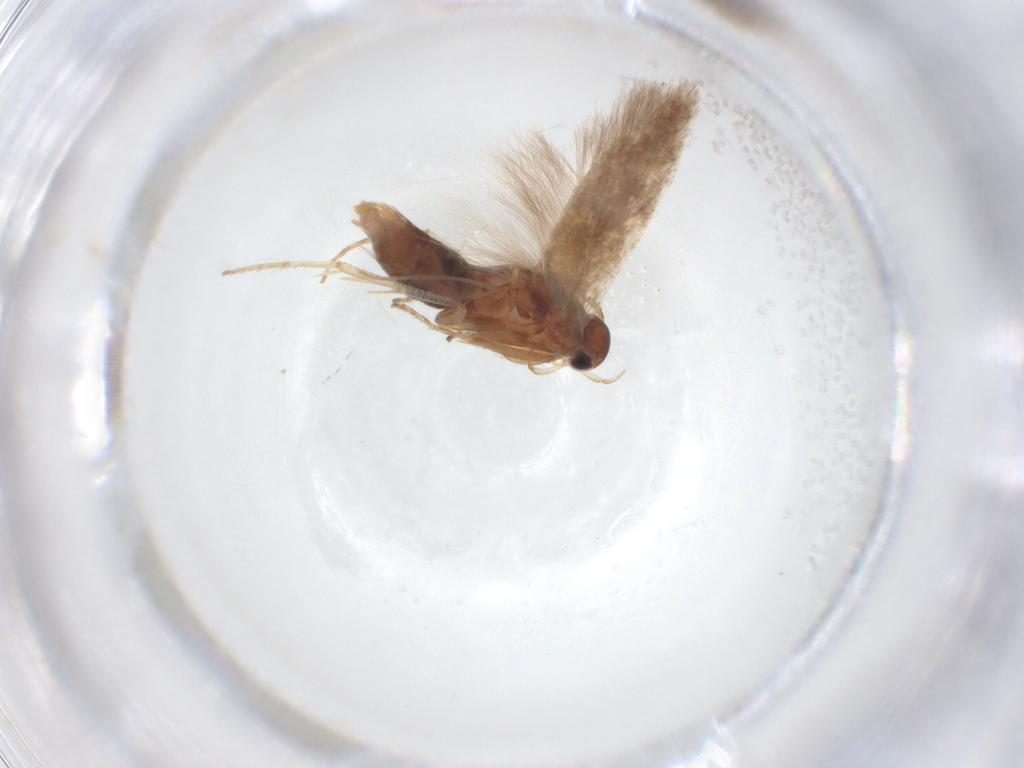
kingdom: Animalia
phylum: Arthropoda
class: Insecta
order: Lepidoptera
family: Gelechiidae
